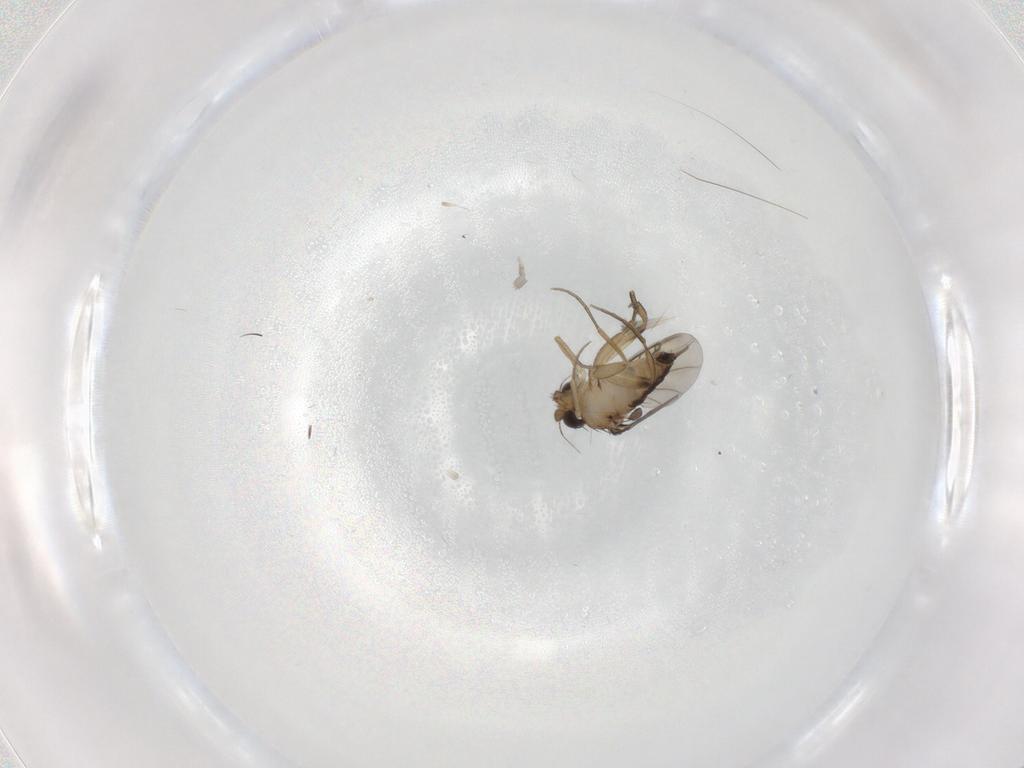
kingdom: Animalia
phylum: Arthropoda
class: Insecta
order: Diptera
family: Phoridae
